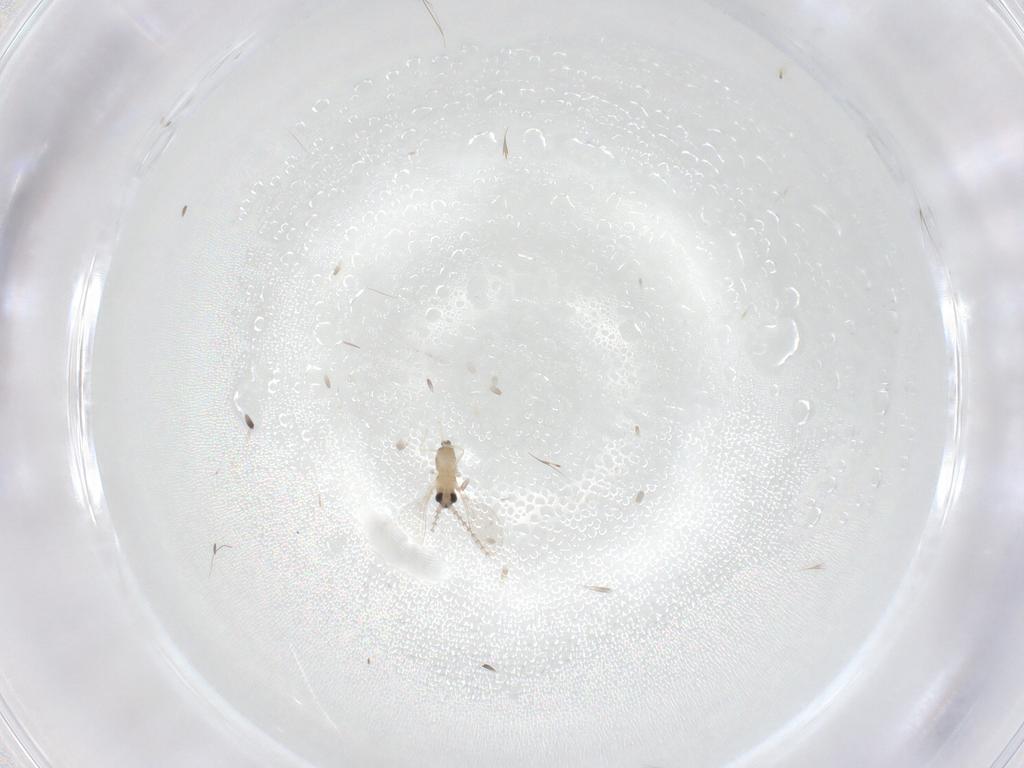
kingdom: Animalia
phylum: Arthropoda
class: Insecta
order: Diptera
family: Cecidomyiidae
